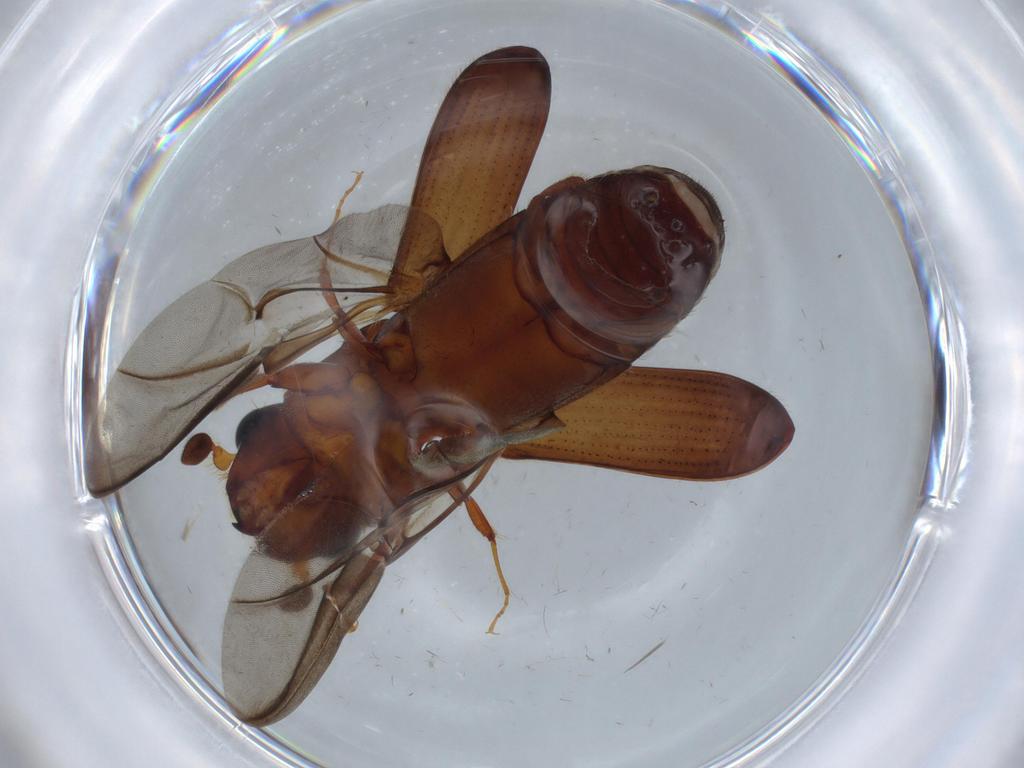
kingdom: Animalia
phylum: Arthropoda
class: Insecta
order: Coleoptera
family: Curculionidae
